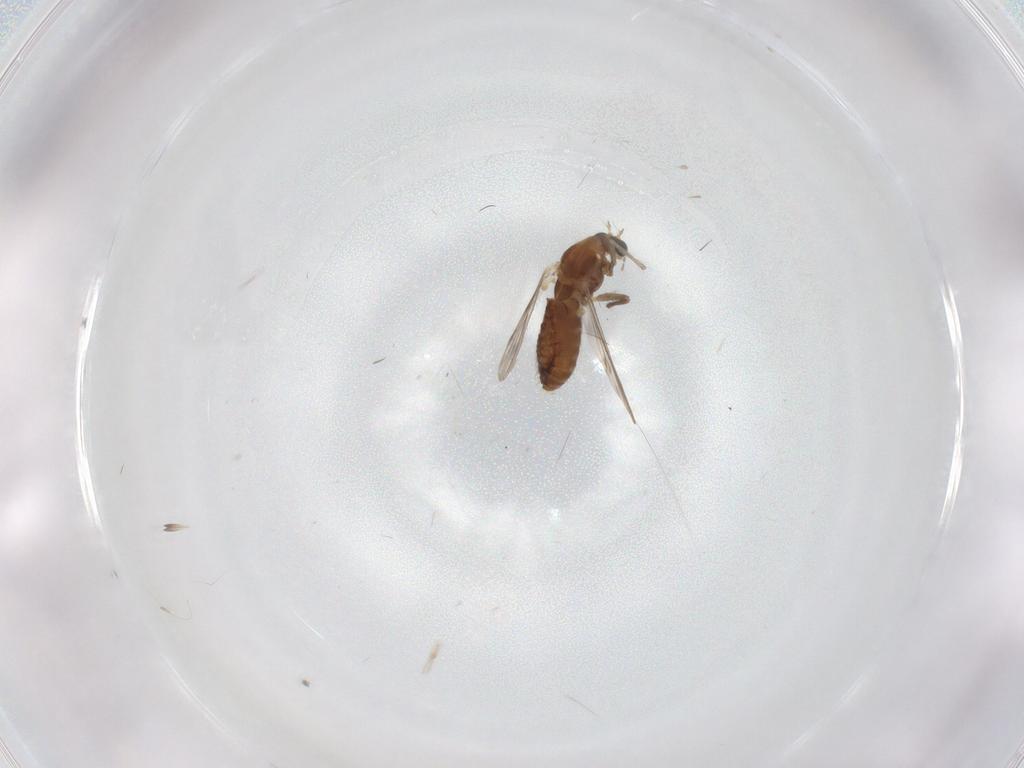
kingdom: Animalia
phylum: Arthropoda
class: Insecta
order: Diptera
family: Chironomidae
